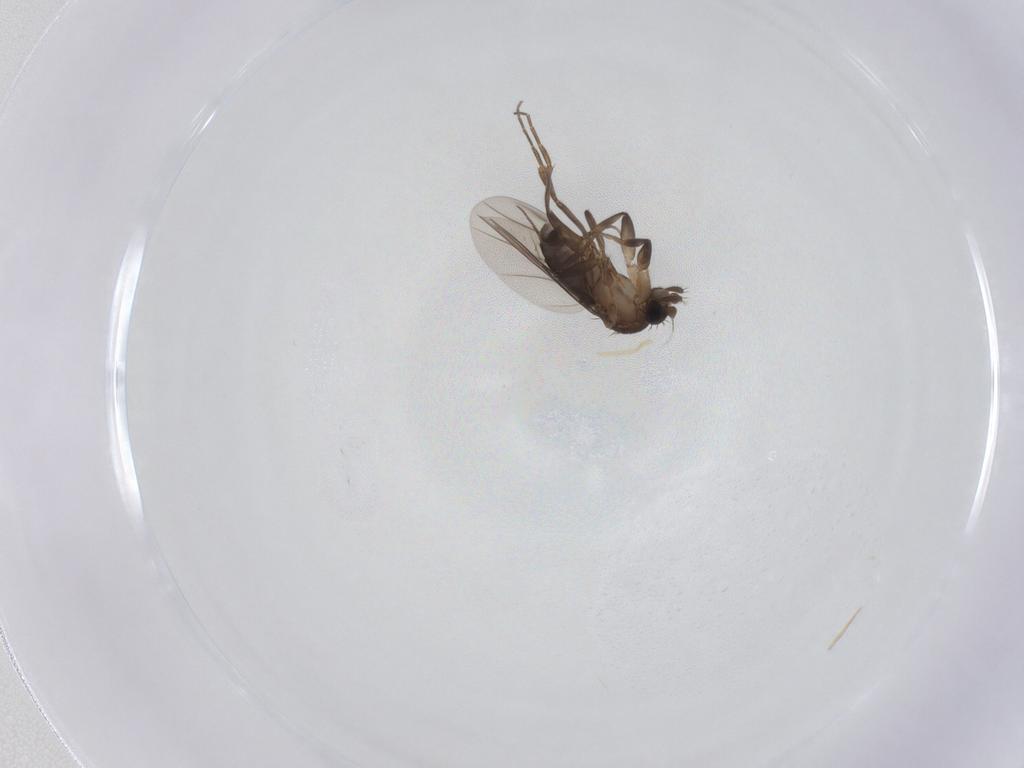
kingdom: Animalia
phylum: Arthropoda
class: Insecta
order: Diptera
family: Phoridae
